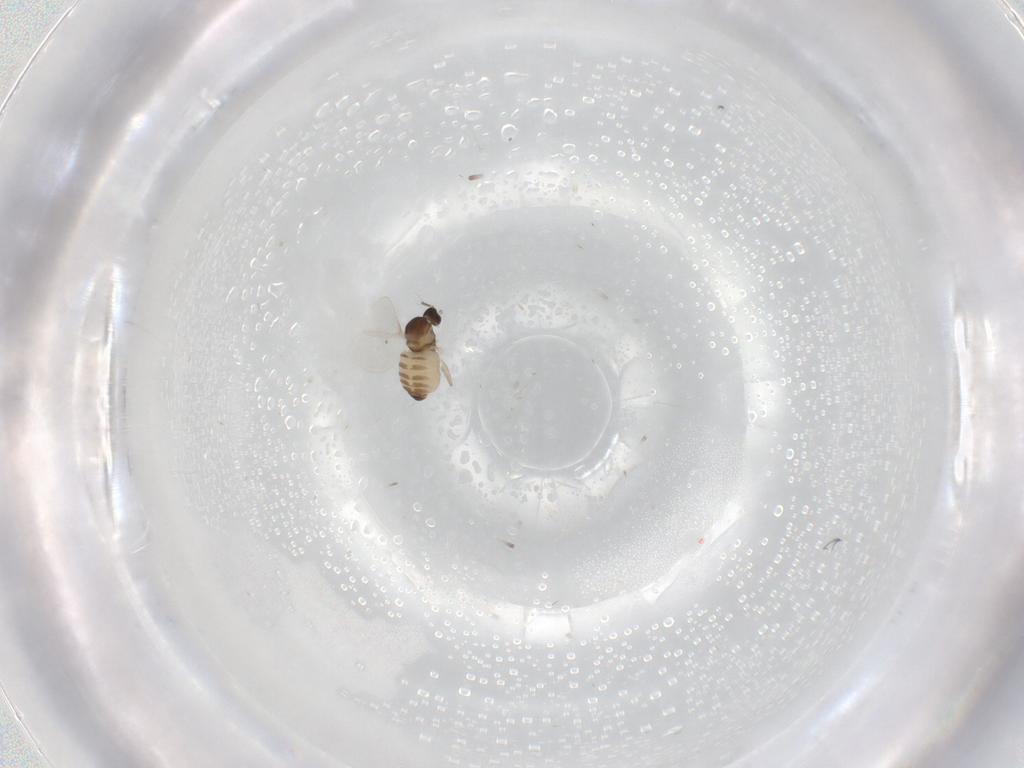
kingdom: Animalia
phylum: Arthropoda
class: Insecta
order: Diptera
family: Cecidomyiidae
